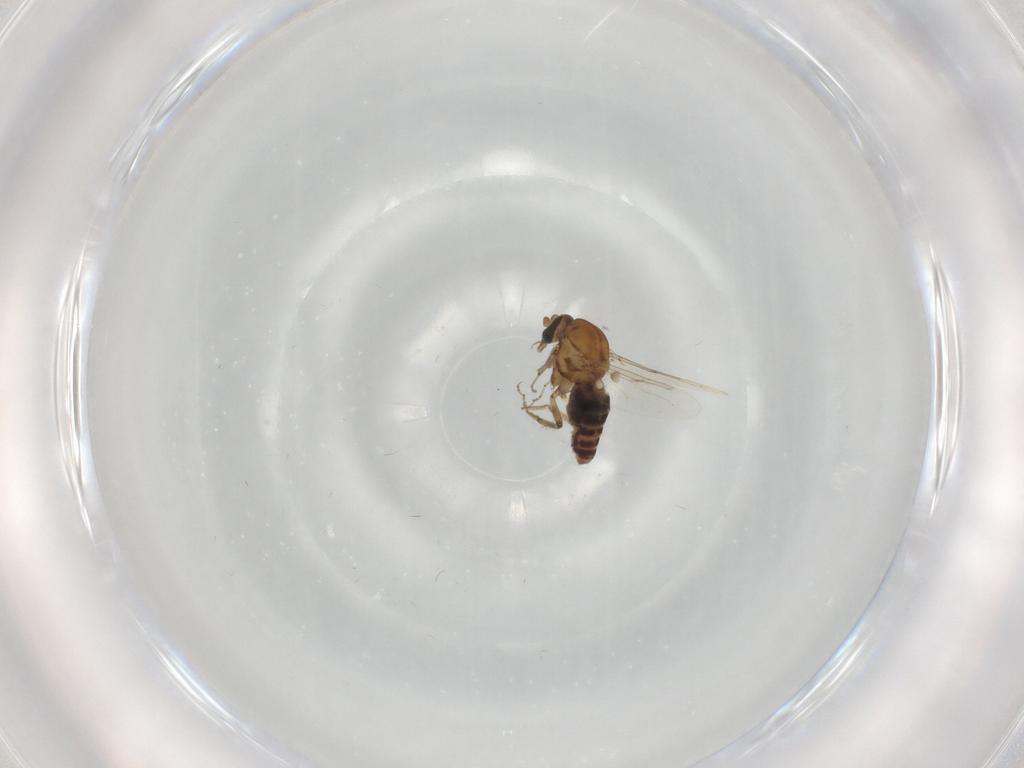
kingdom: Animalia
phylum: Arthropoda
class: Insecta
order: Diptera
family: Ceratopogonidae
